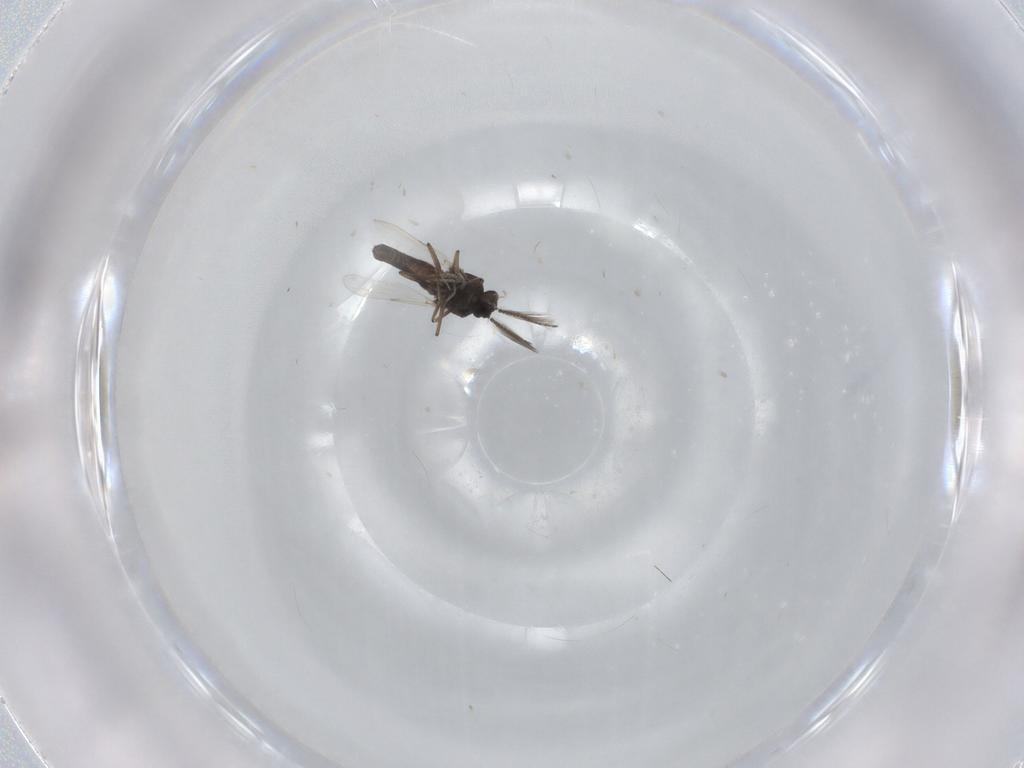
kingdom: Animalia
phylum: Arthropoda
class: Insecta
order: Diptera
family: Ceratopogonidae
